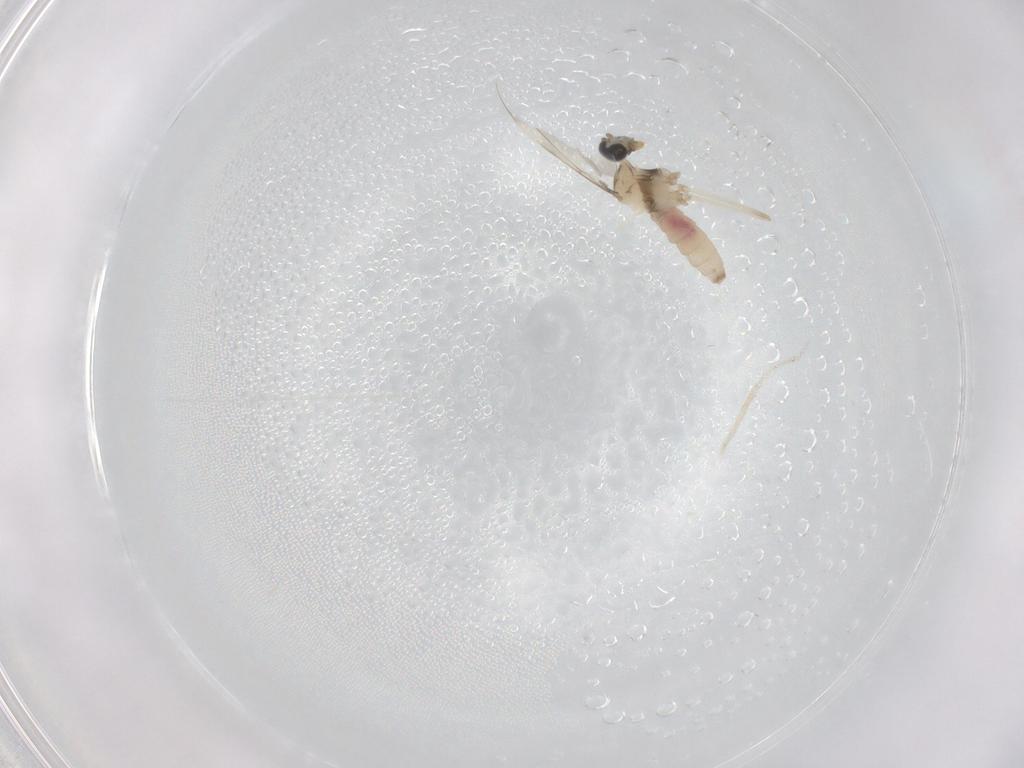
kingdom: Animalia
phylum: Arthropoda
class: Insecta
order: Diptera
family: Cecidomyiidae
